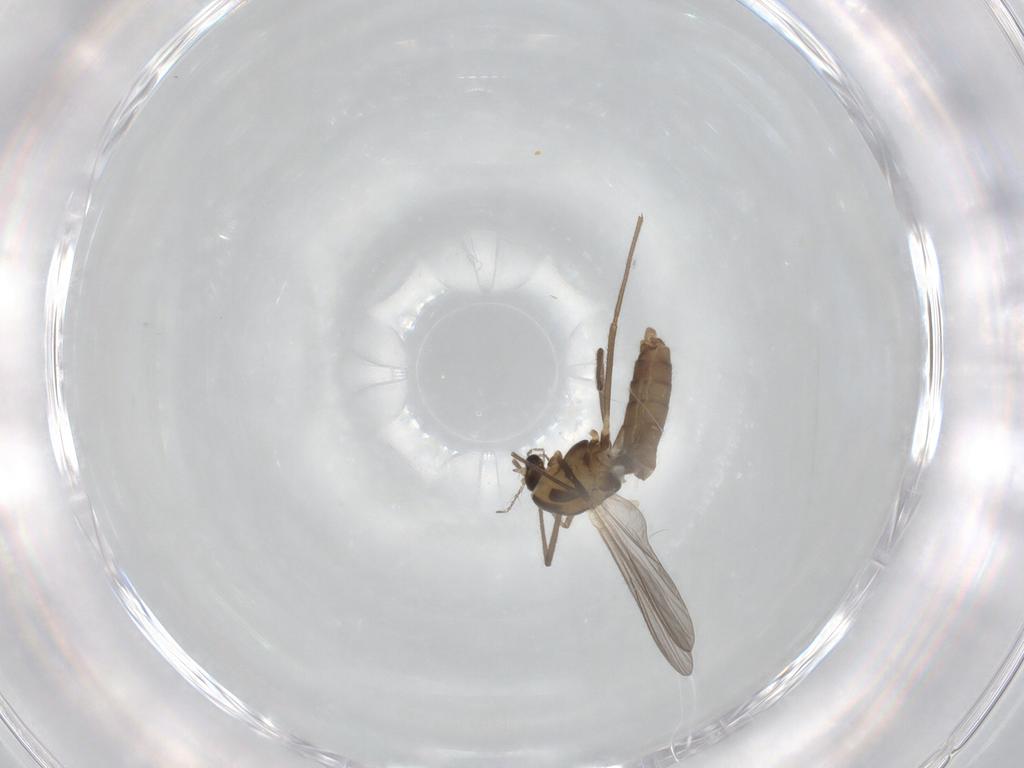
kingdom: Animalia
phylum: Arthropoda
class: Insecta
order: Diptera
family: Chironomidae
